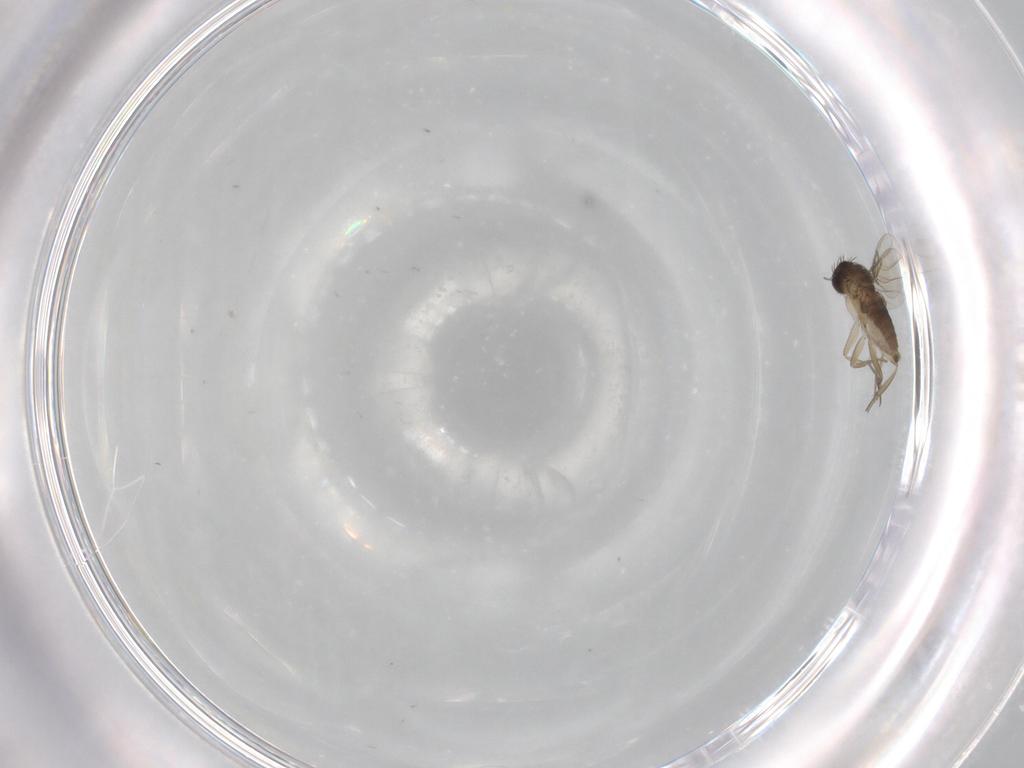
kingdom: Animalia
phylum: Arthropoda
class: Insecta
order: Diptera
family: Phoridae
